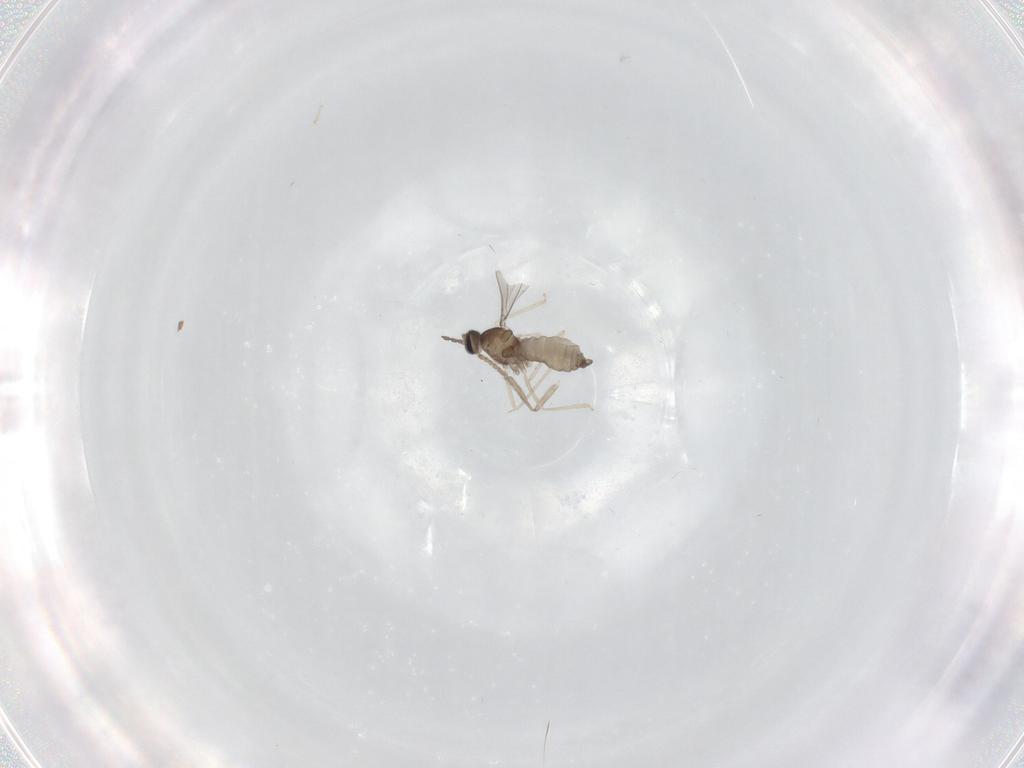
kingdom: Animalia
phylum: Arthropoda
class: Insecta
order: Diptera
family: Psychodidae
